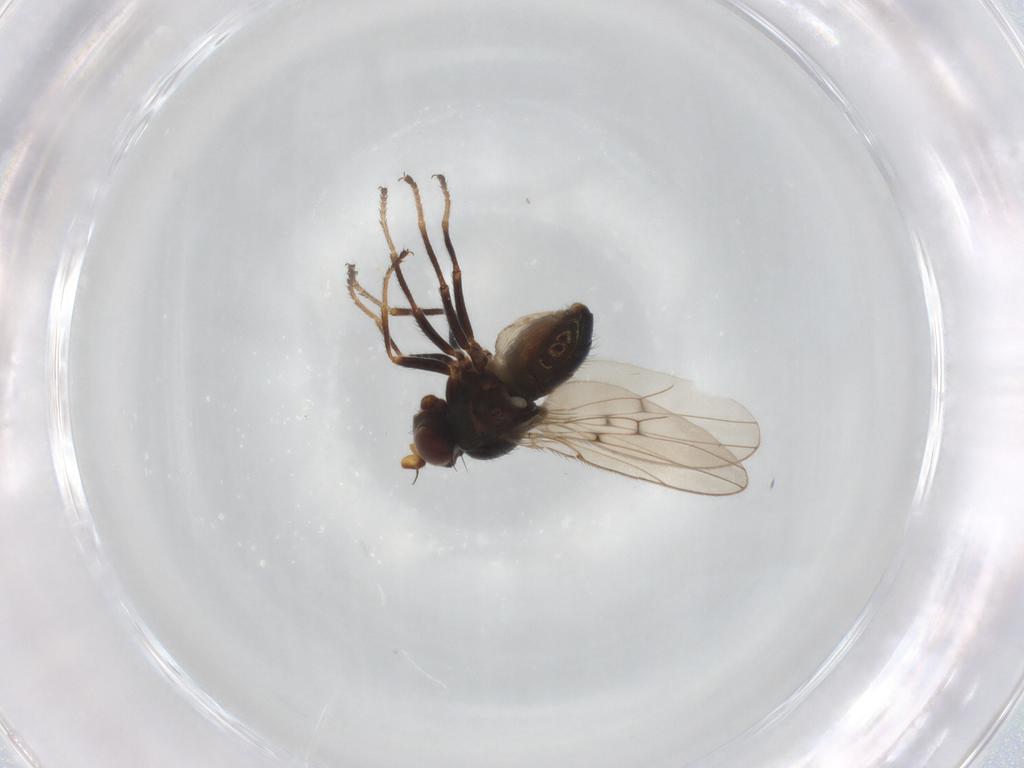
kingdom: Animalia
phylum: Arthropoda
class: Insecta
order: Diptera
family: Ephydridae
